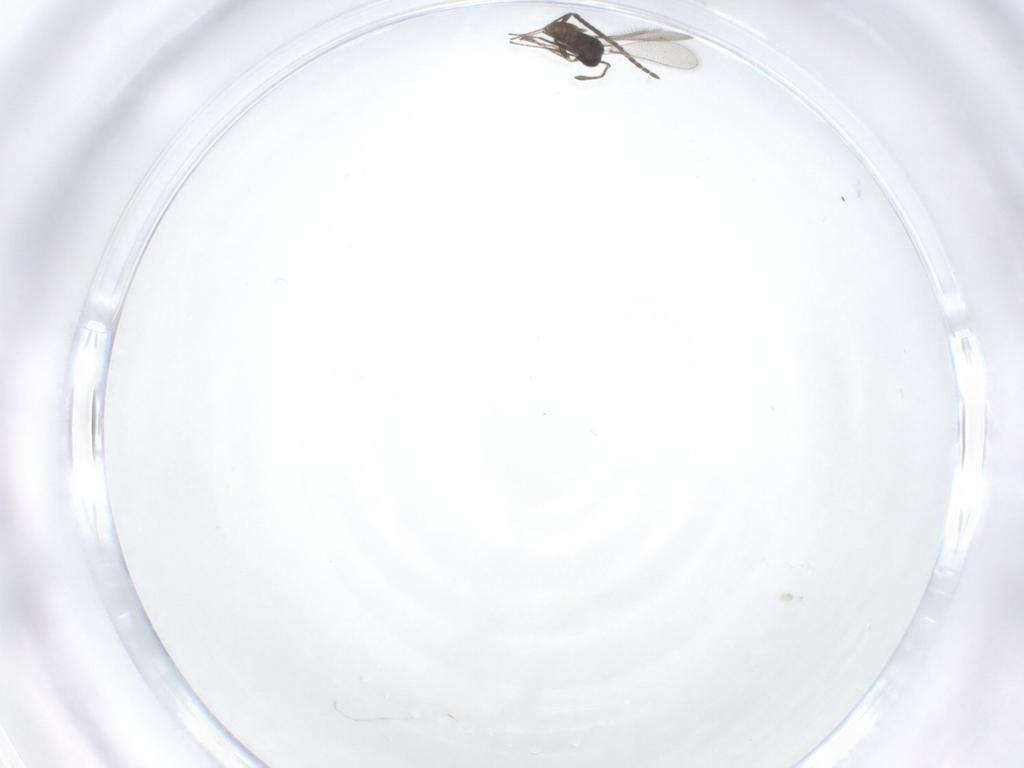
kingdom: Animalia
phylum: Arthropoda
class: Insecta
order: Diptera
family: Sciaridae
